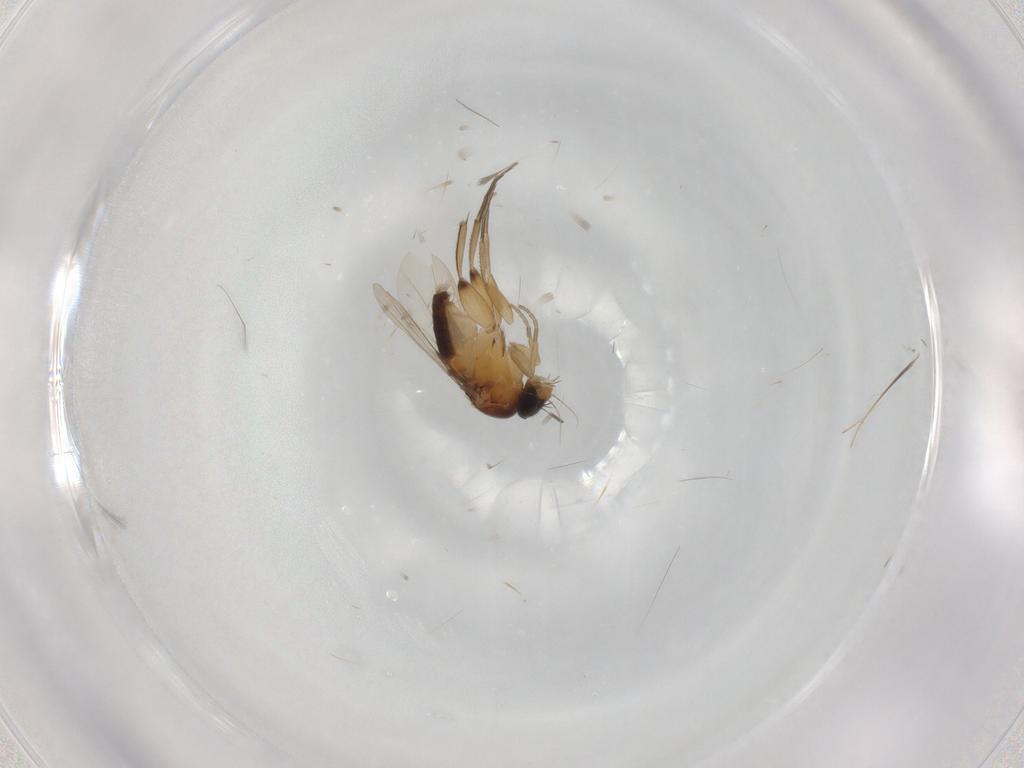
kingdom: Animalia
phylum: Arthropoda
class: Insecta
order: Diptera
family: Phoridae
